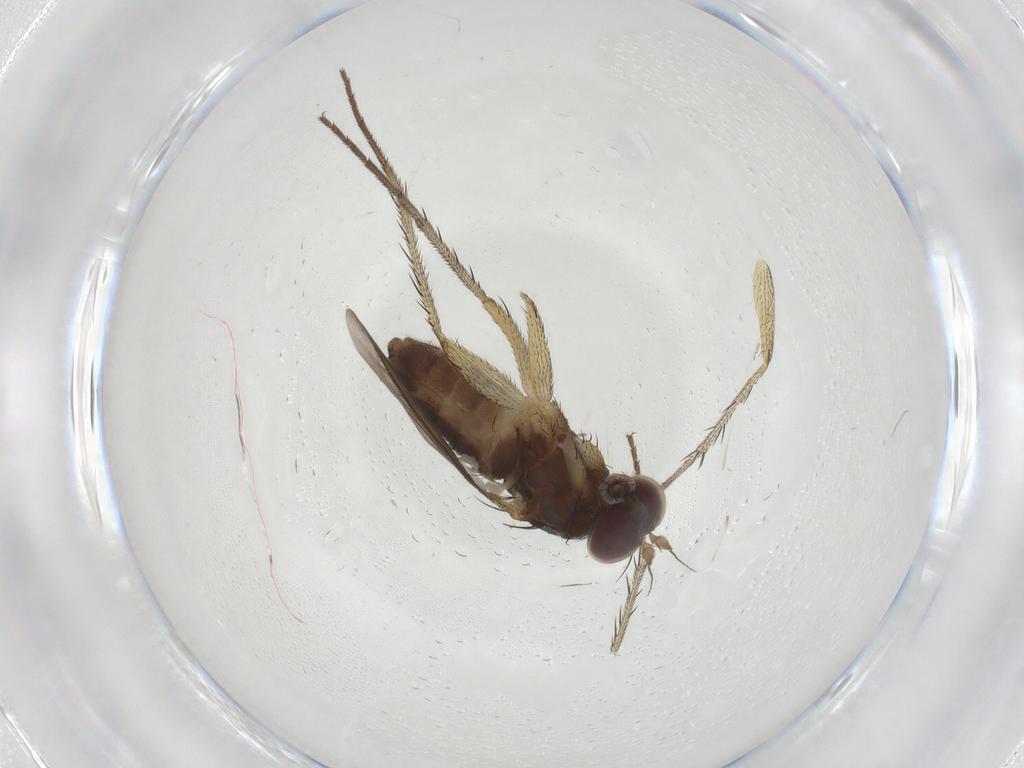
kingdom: Animalia
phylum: Arthropoda
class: Insecta
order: Diptera
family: Dolichopodidae
